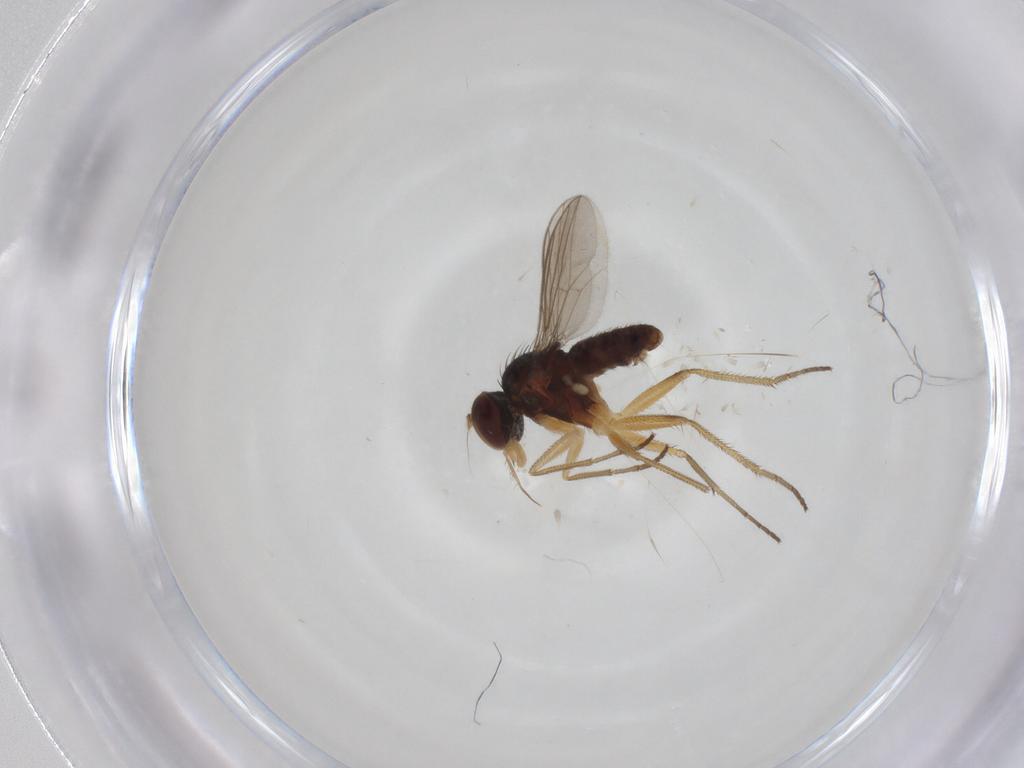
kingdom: Animalia
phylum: Arthropoda
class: Insecta
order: Diptera
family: Dolichopodidae
